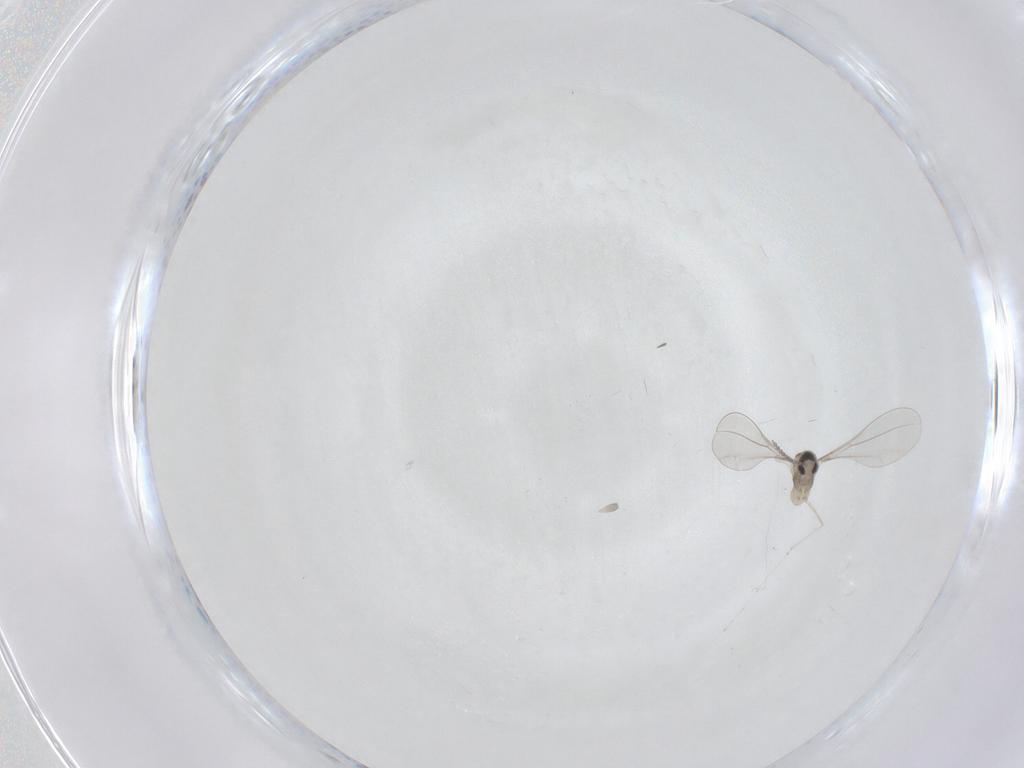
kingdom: Animalia
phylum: Arthropoda
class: Insecta
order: Diptera
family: Cecidomyiidae
